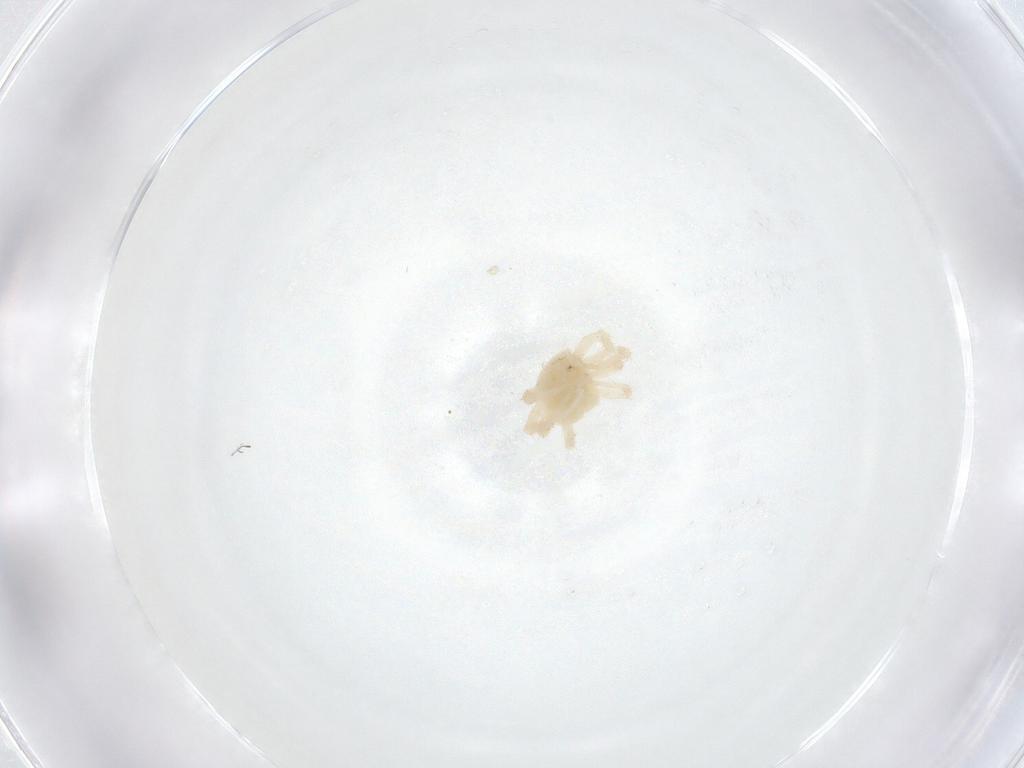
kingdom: Animalia
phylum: Arthropoda
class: Arachnida
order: Trombidiformes
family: Anystidae
